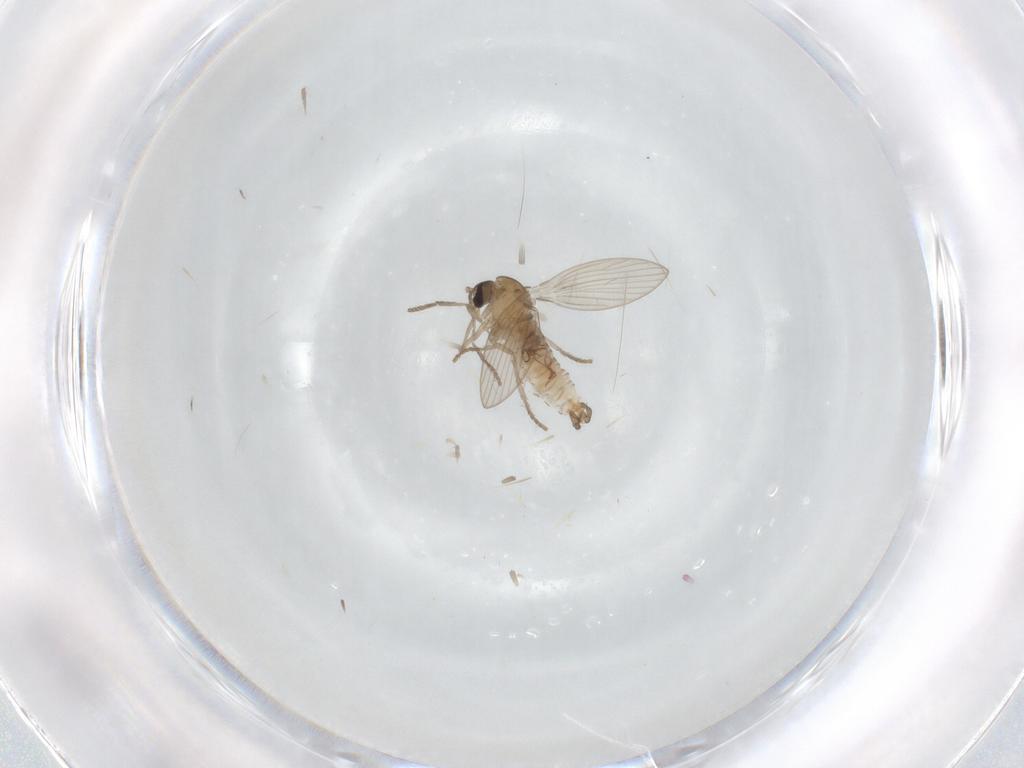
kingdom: Animalia
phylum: Arthropoda
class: Insecta
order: Diptera
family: Psychodidae
